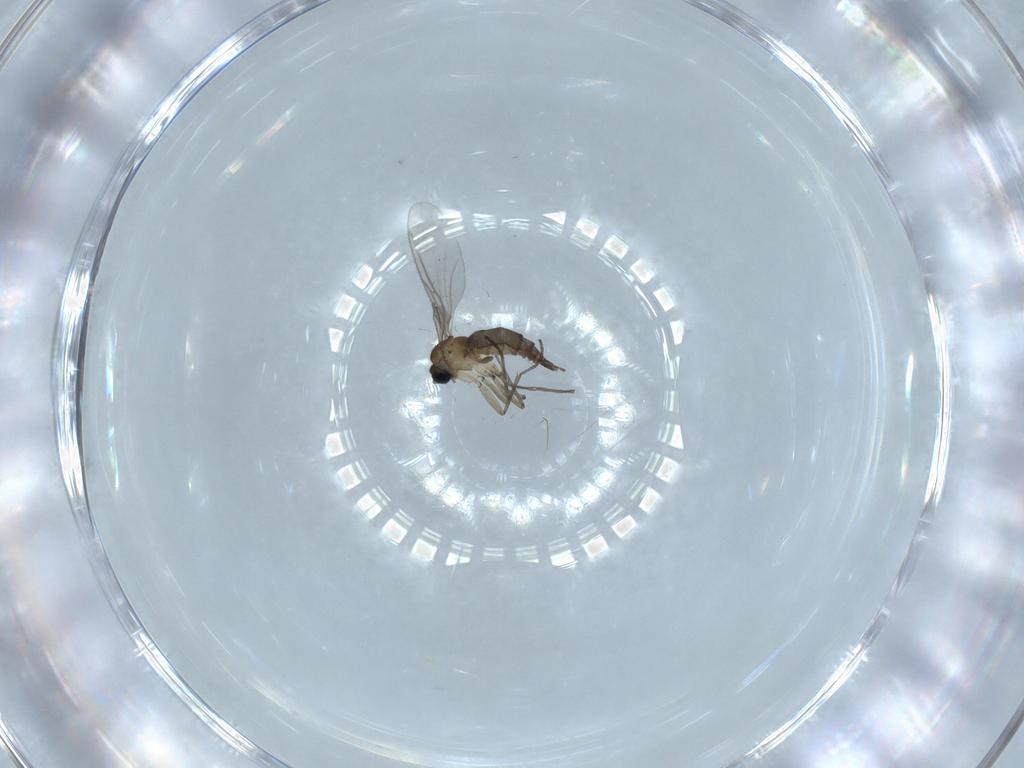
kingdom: Animalia
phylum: Arthropoda
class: Insecta
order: Diptera
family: Sciaridae
